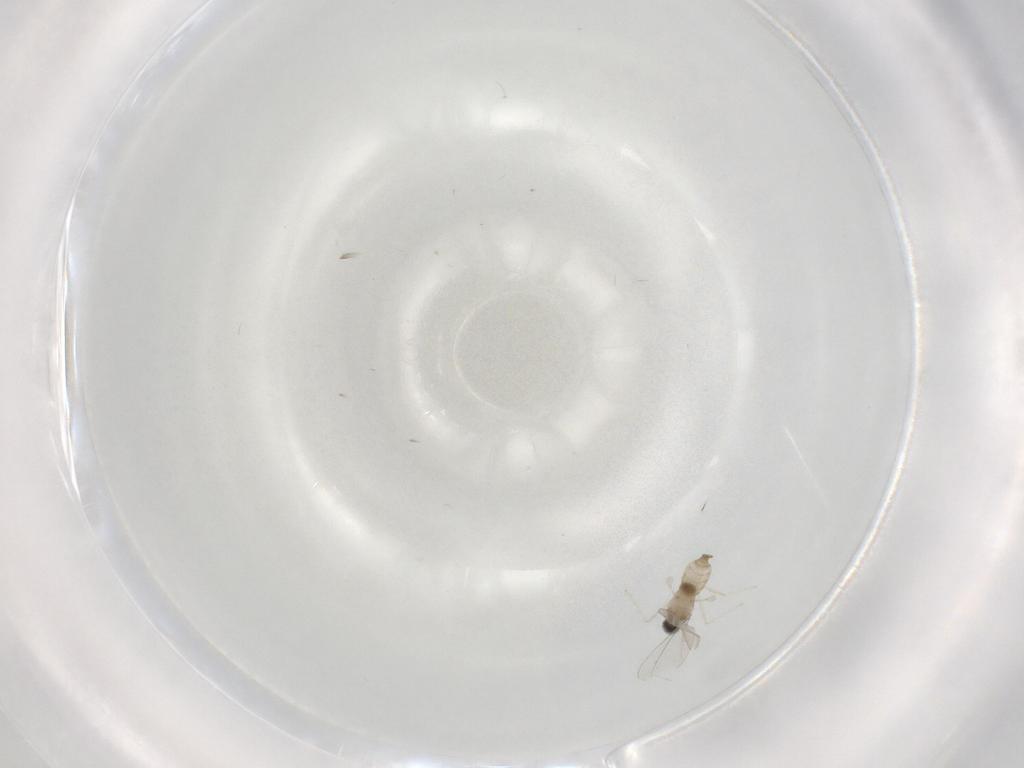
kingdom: Animalia
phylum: Arthropoda
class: Insecta
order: Diptera
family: Cecidomyiidae
